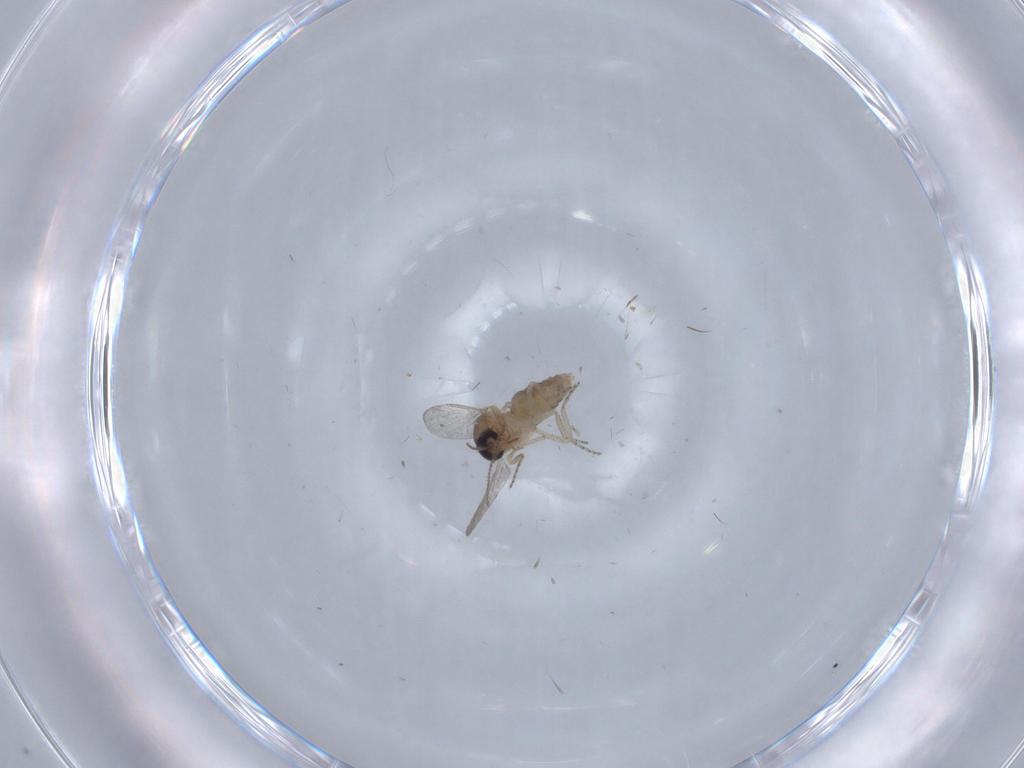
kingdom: Animalia
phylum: Arthropoda
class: Insecta
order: Diptera
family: Ceratopogonidae
